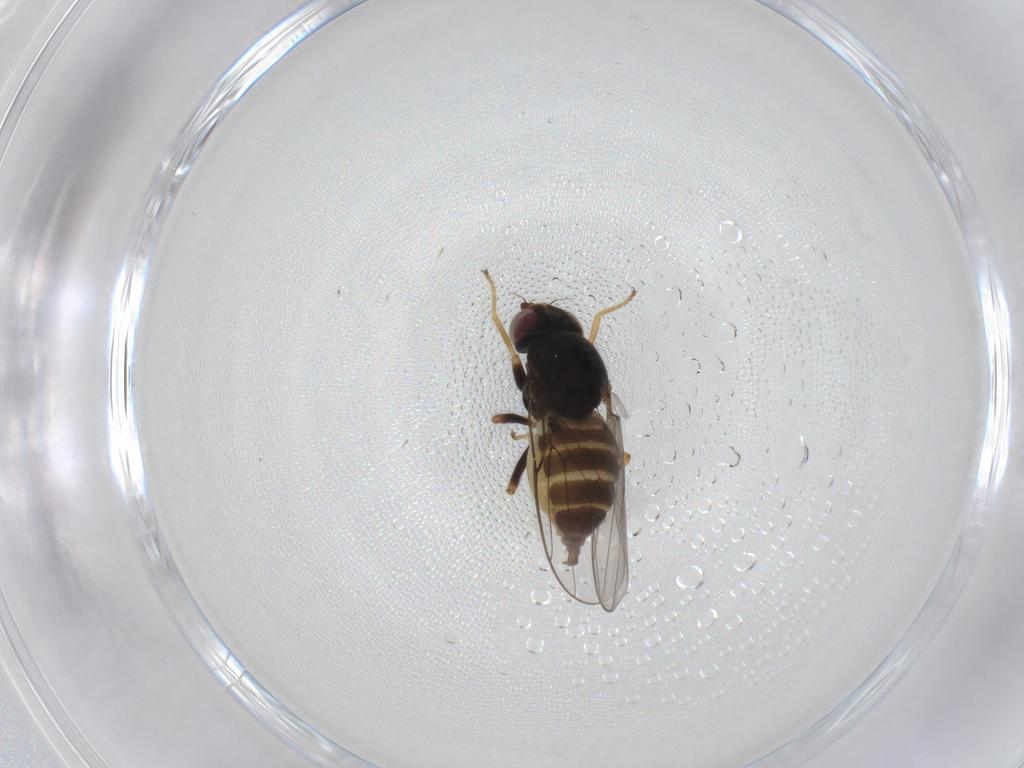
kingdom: Animalia
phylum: Arthropoda
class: Insecta
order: Diptera
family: Chloropidae
